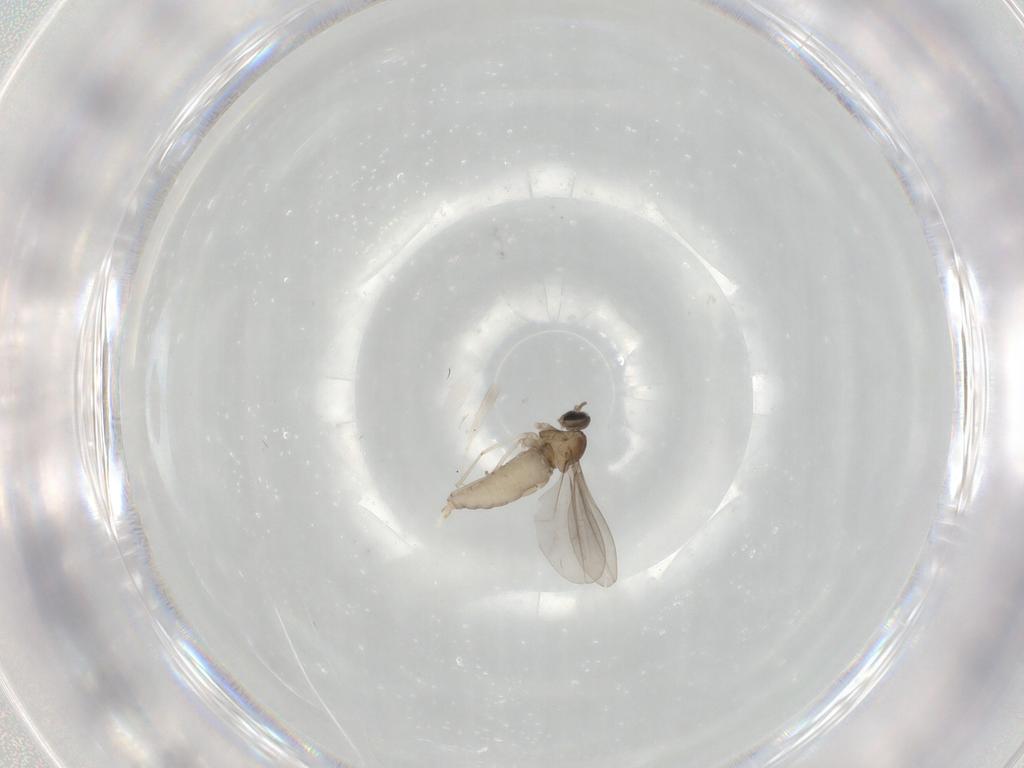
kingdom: Animalia
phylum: Arthropoda
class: Insecta
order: Diptera
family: Cecidomyiidae
